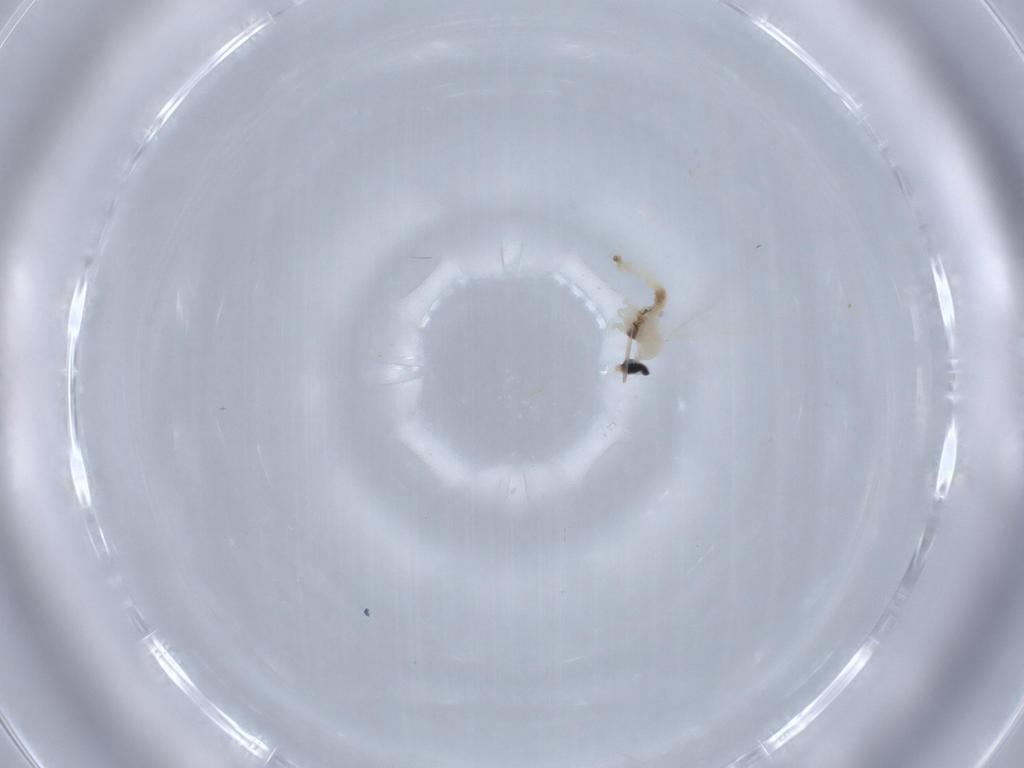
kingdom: Animalia
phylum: Arthropoda
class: Insecta
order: Diptera
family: Cecidomyiidae
